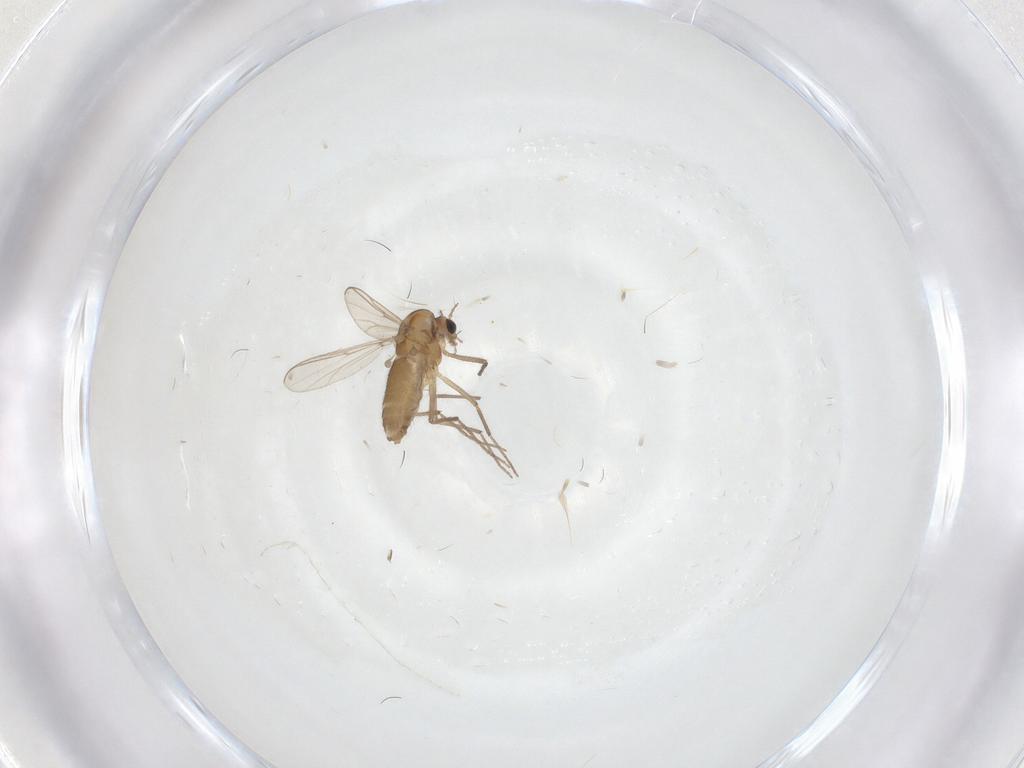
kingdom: Animalia
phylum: Arthropoda
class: Insecta
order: Diptera
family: Chironomidae
